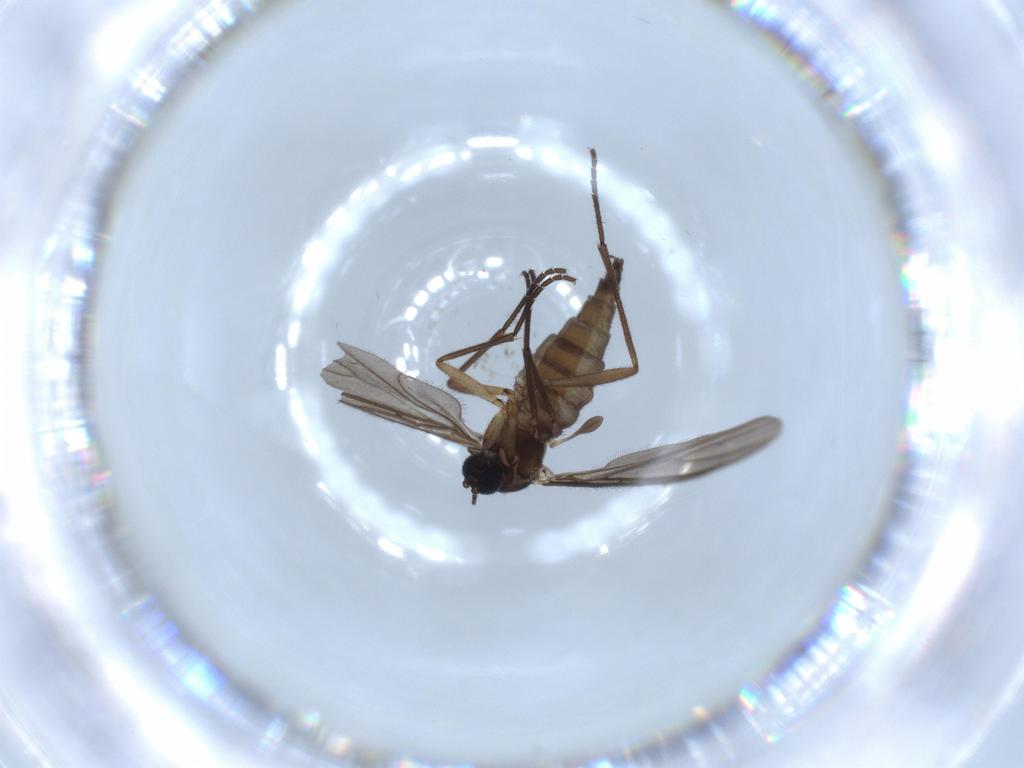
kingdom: Animalia
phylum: Arthropoda
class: Insecta
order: Diptera
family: Sciaridae
